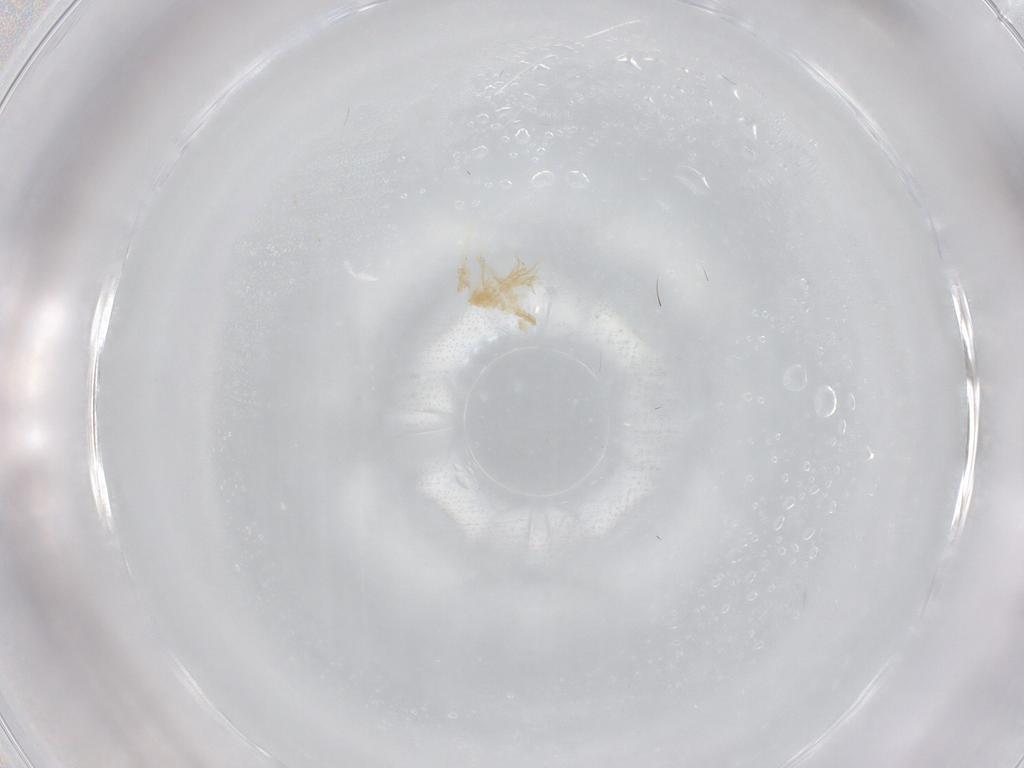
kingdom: Animalia
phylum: Arthropoda
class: Insecta
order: Diptera
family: Cecidomyiidae
